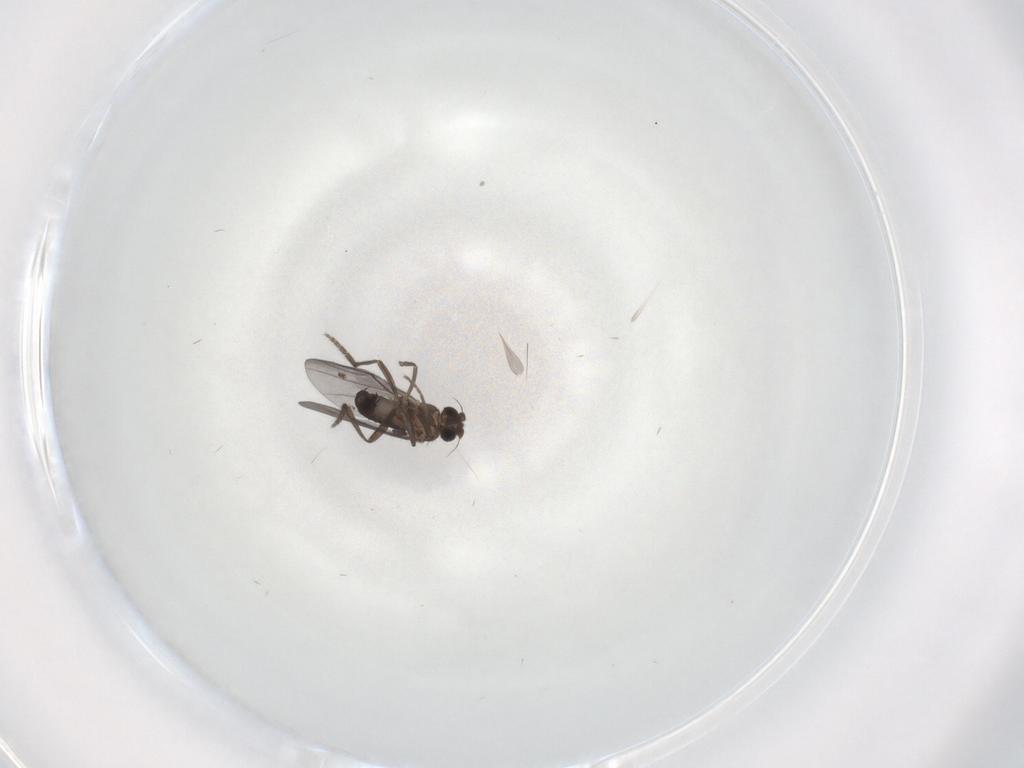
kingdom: Animalia
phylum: Arthropoda
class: Insecta
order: Diptera
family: Phoridae
